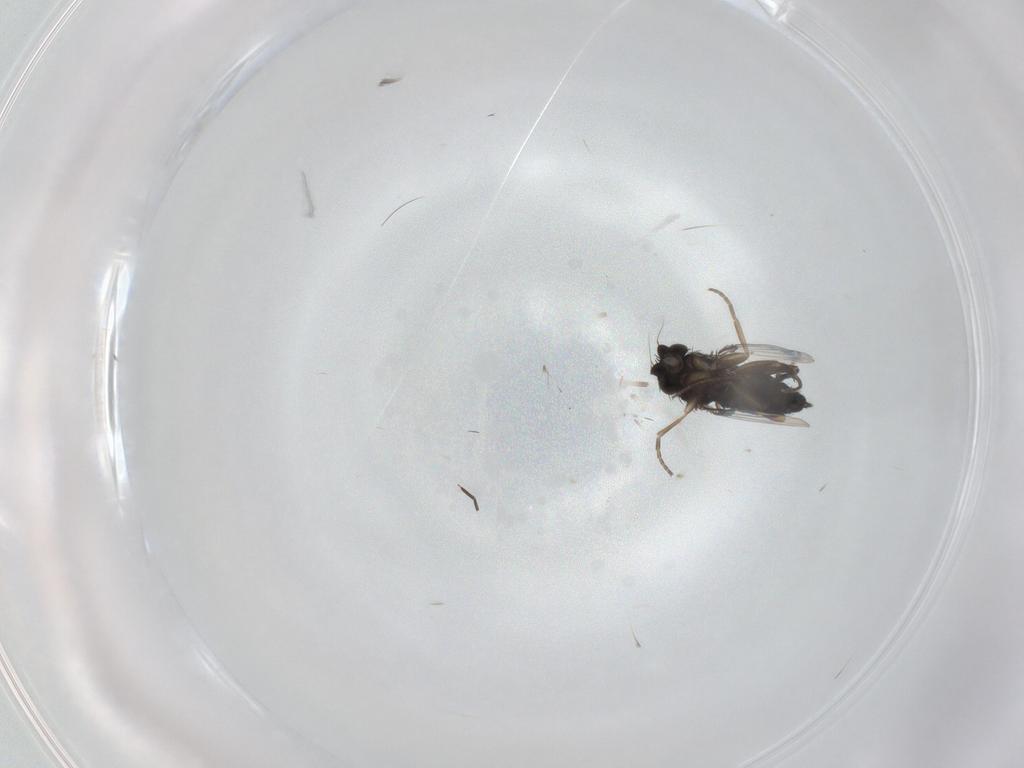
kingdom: Animalia
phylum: Arthropoda
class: Insecta
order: Diptera
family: Phoridae
